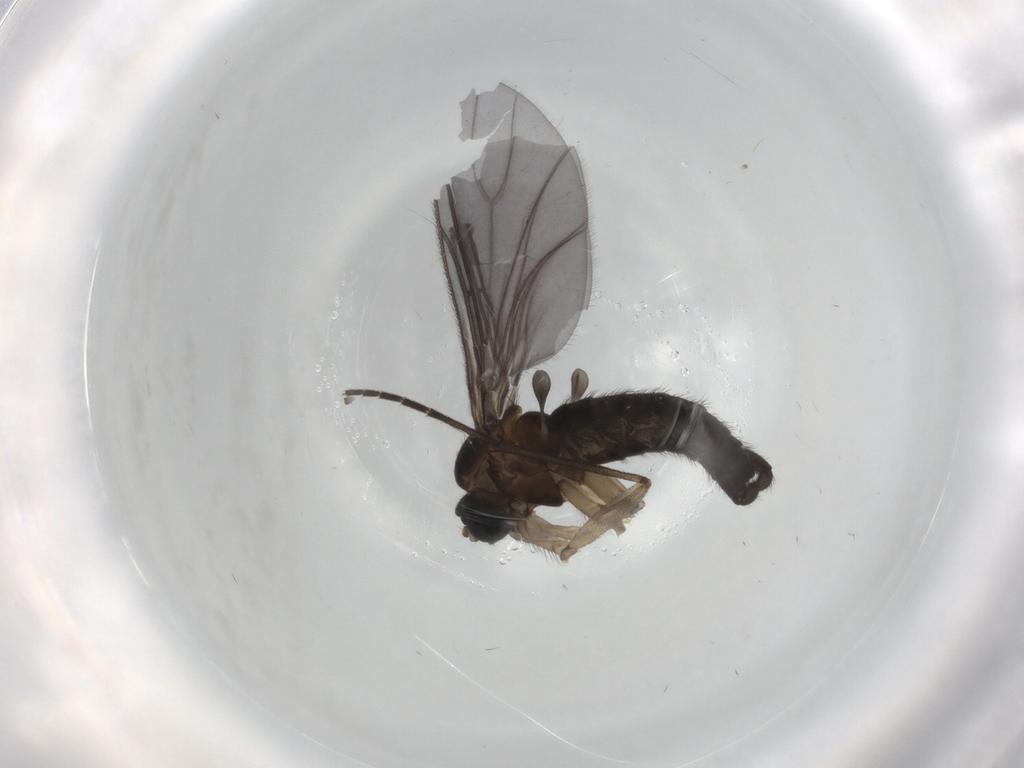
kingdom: Animalia
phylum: Arthropoda
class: Insecta
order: Diptera
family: Sciaridae
